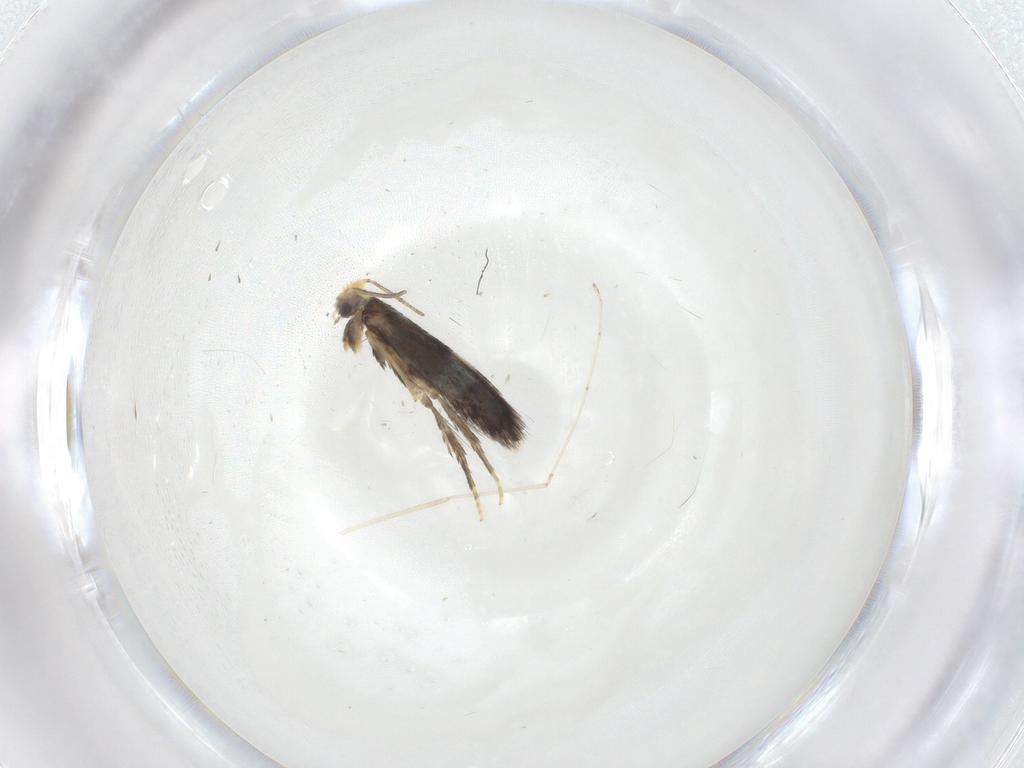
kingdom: Animalia
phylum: Arthropoda
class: Insecta
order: Lepidoptera
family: Nepticulidae
